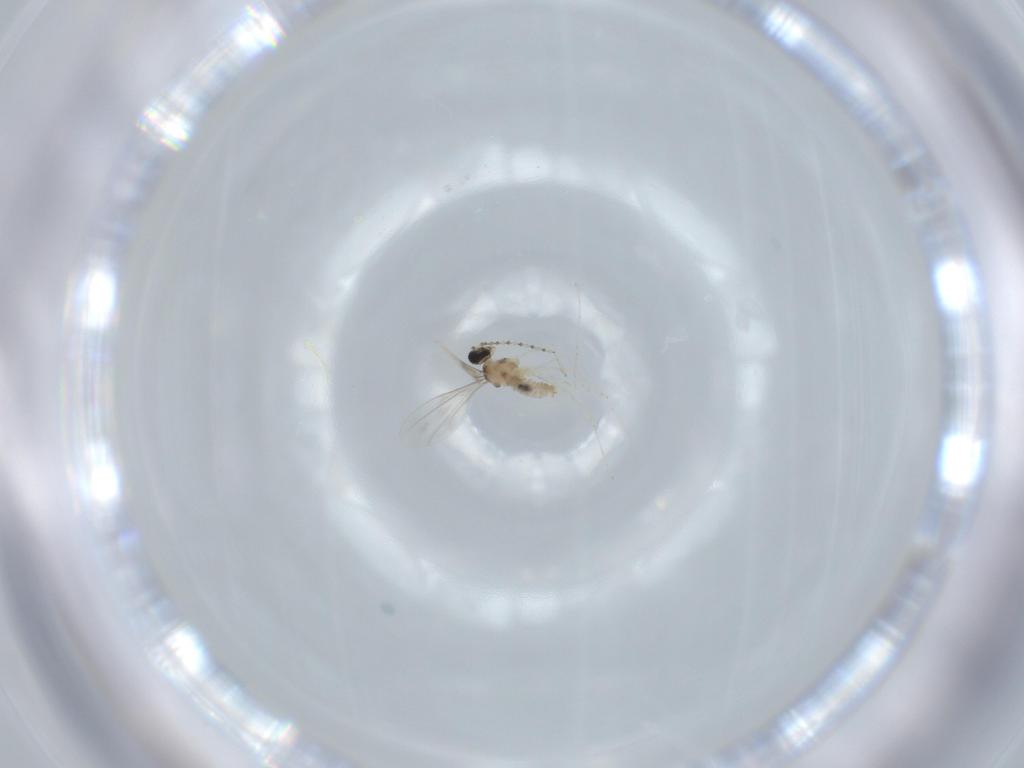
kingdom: Animalia
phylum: Arthropoda
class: Insecta
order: Diptera
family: Cecidomyiidae
